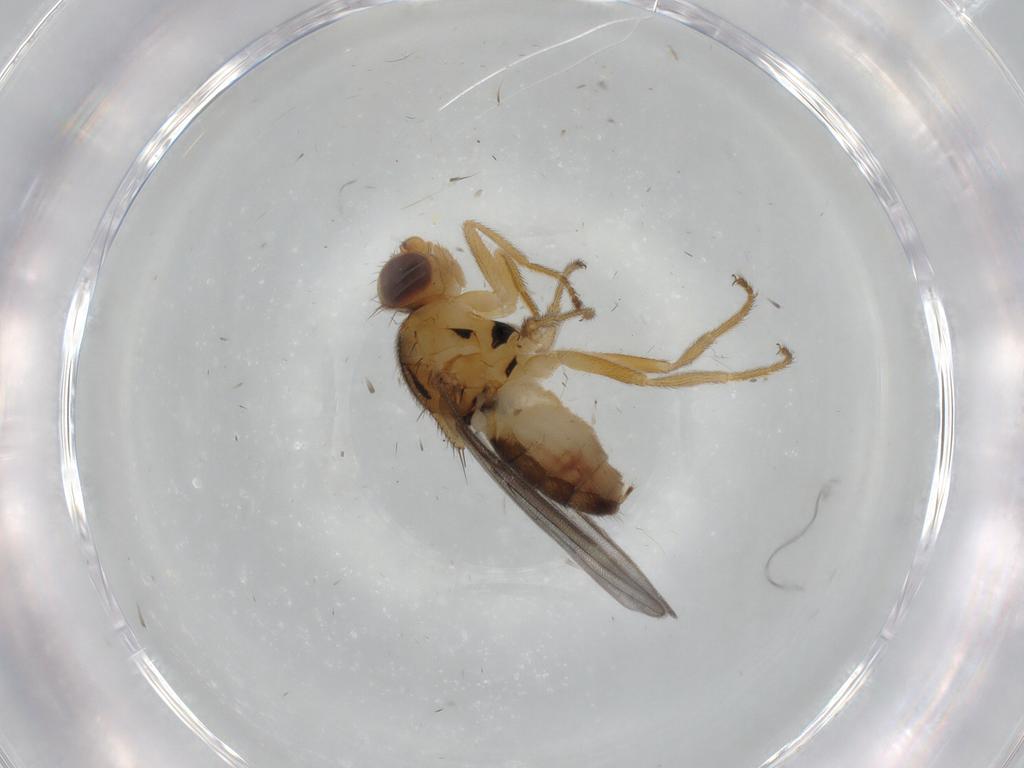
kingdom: Animalia
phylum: Arthropoda
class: Insecta
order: Diptera
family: Chloropidae
